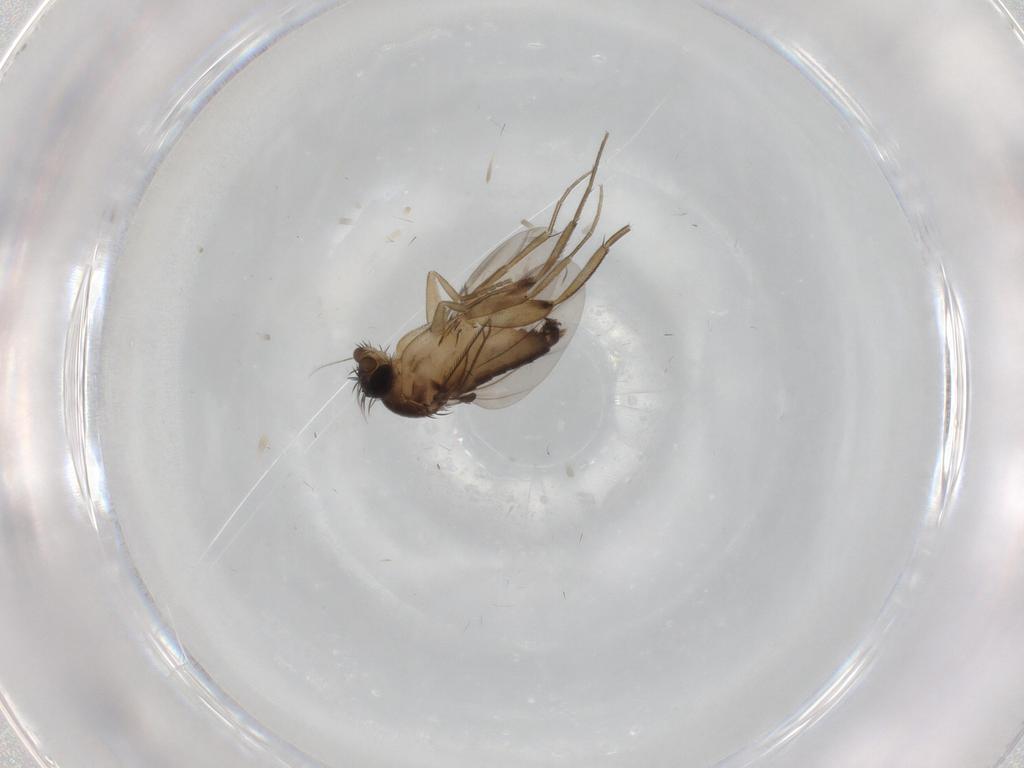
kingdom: Animalia
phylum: Arthropoda
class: Insecta
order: Diptera
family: Phoridae
